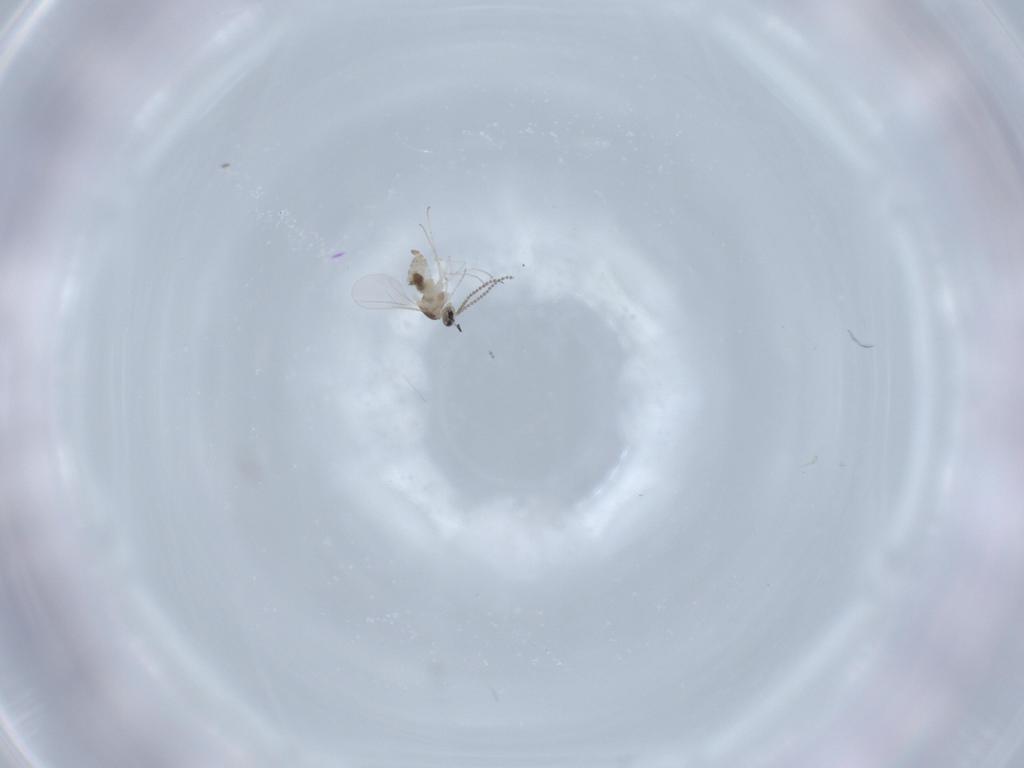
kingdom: Animalia
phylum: Arthropoda
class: Insecta
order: Diptera
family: Cecidomyiidae
